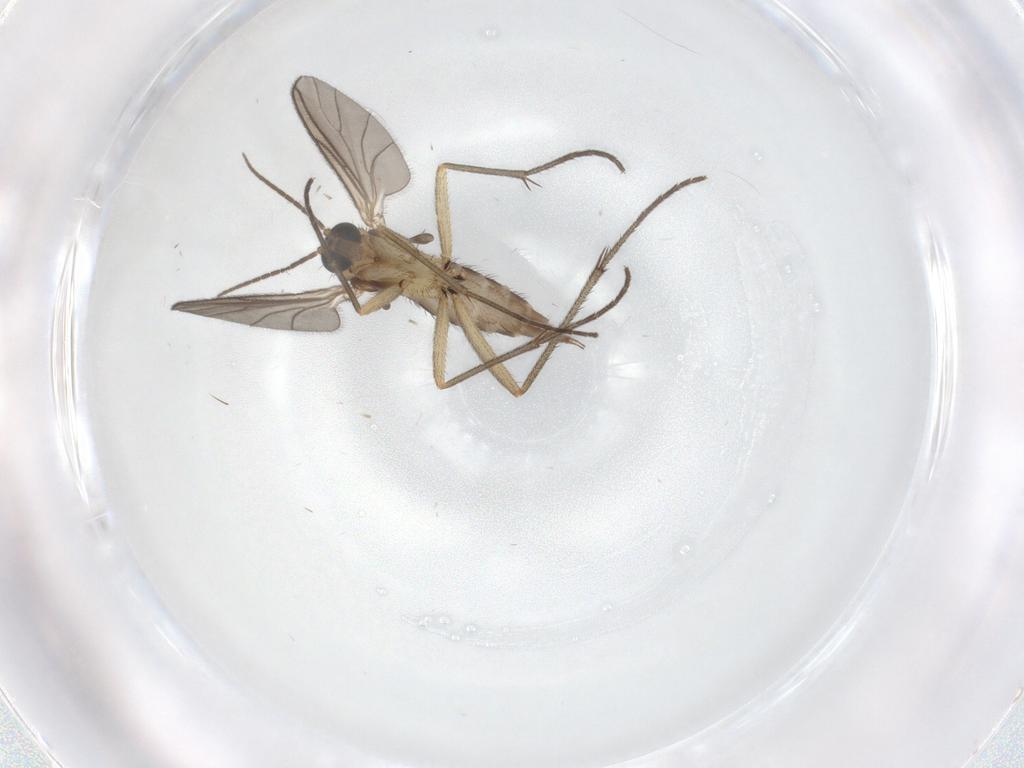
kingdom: Animalia
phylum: Arthropoda
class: Insecta
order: Diptera
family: Sciaridae
